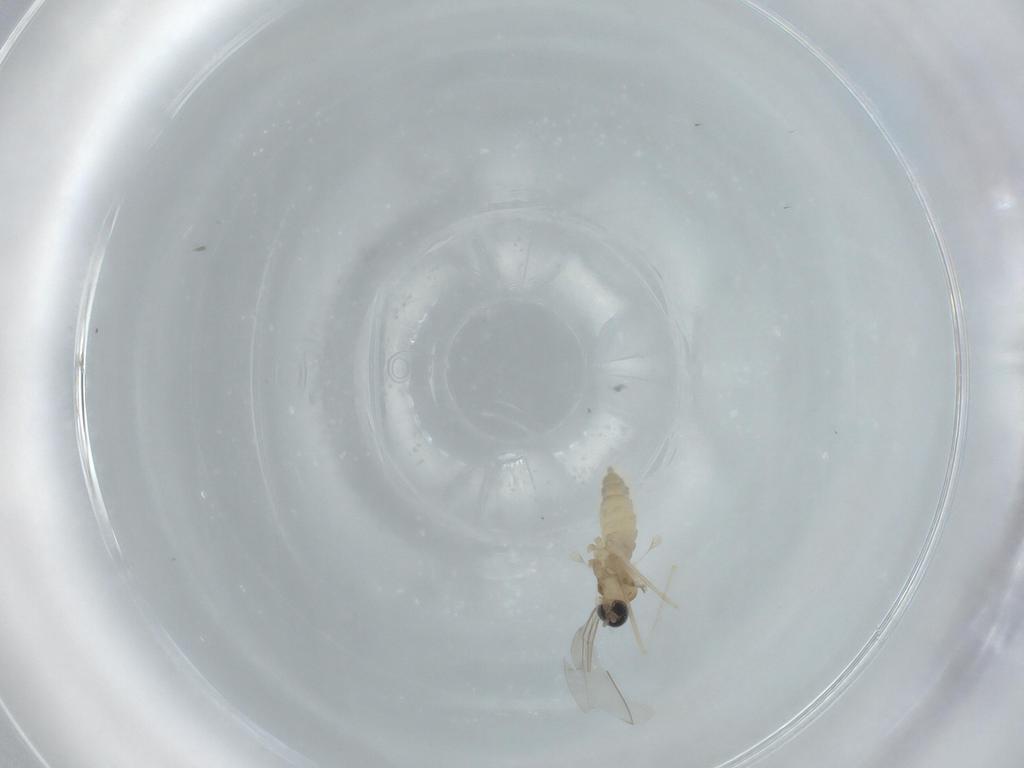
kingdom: Animalia
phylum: Arthropoda
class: Insecta
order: Diptera
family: Cecidomyiidae
